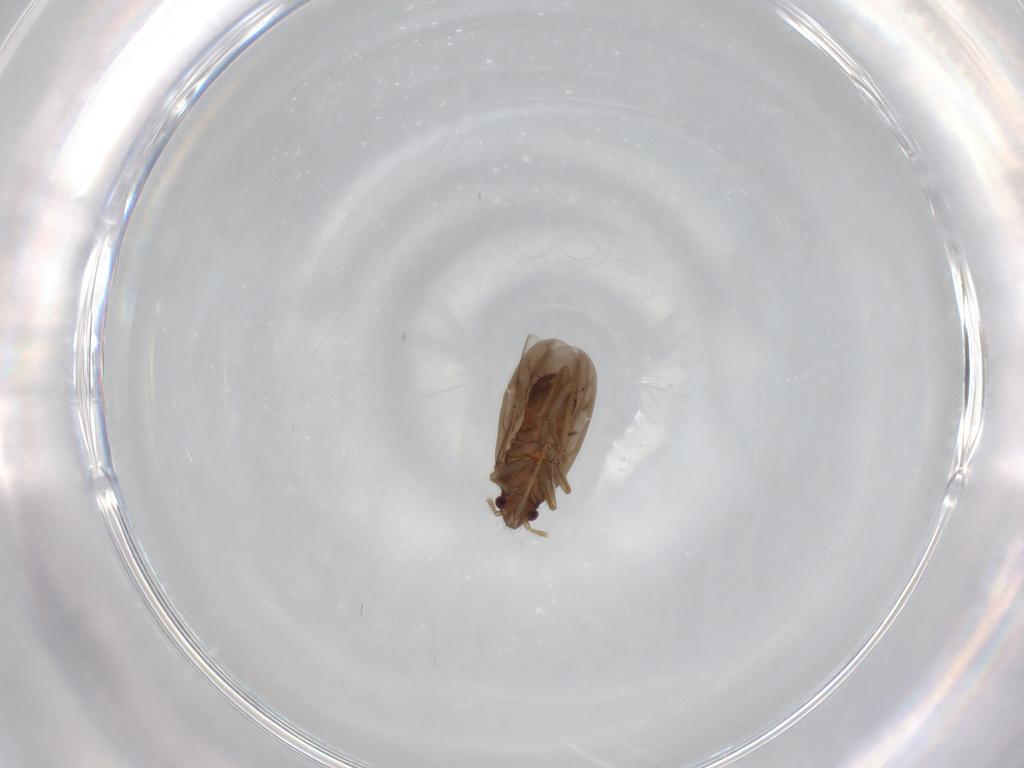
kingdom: Animalia
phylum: Arthropoda
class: Insecta
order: Hemiptera
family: Ceratocombidae
